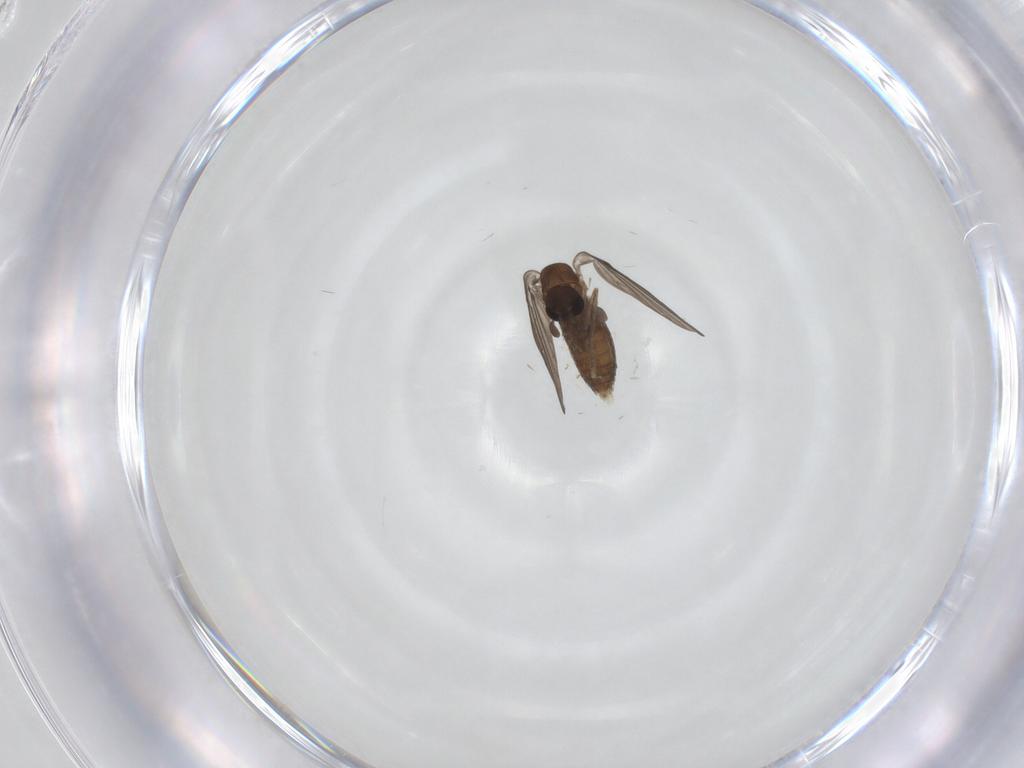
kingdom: Animalia
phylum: Arthropoda
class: Insecta
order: Diptera
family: Psychodidae
